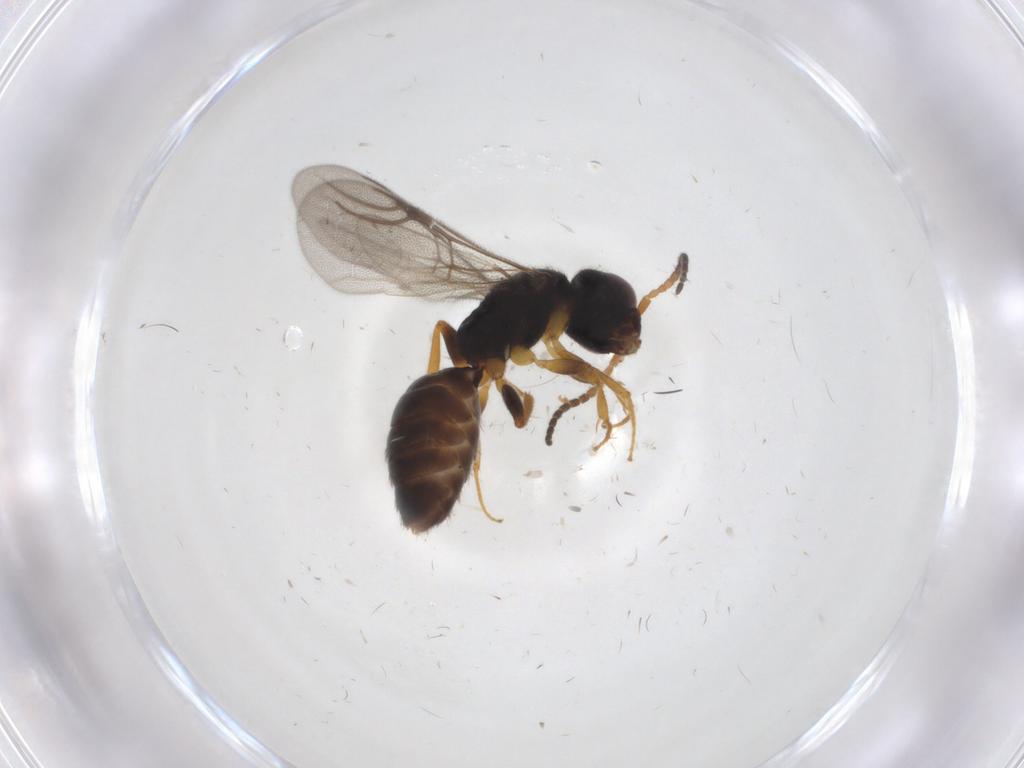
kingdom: Animalia
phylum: Arthropoda
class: Insecta
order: Hymenoptera
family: Bethylidae
